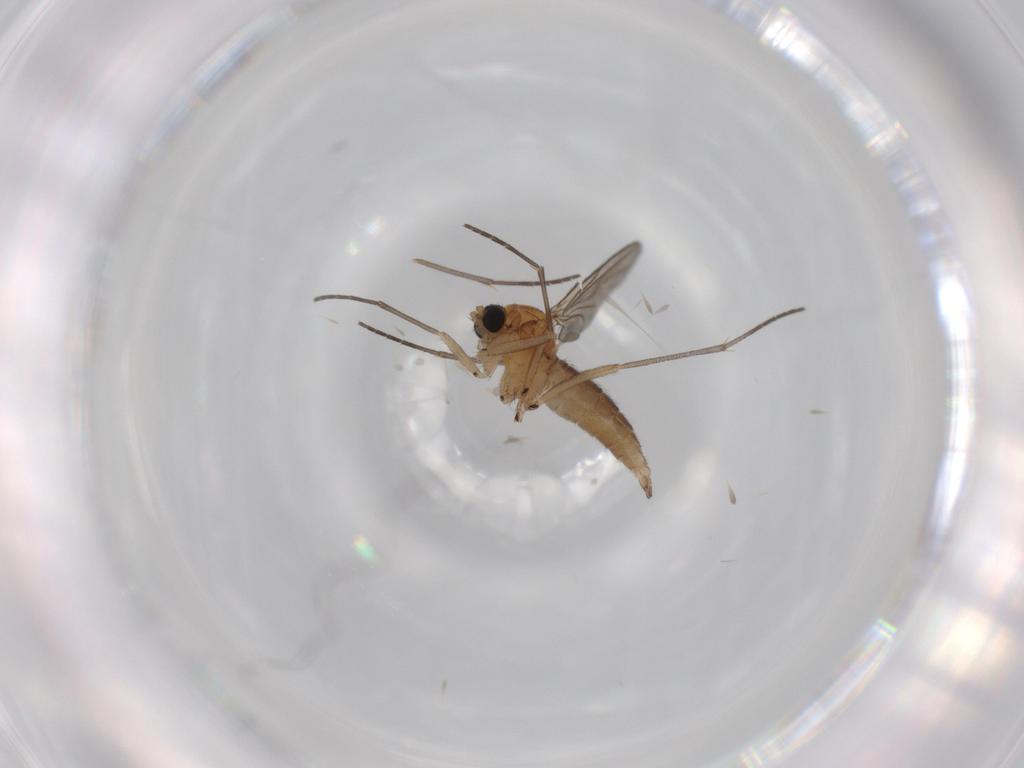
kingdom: Animalia
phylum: Arthropoda
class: Insecta
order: Diptera
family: Sciaridae
